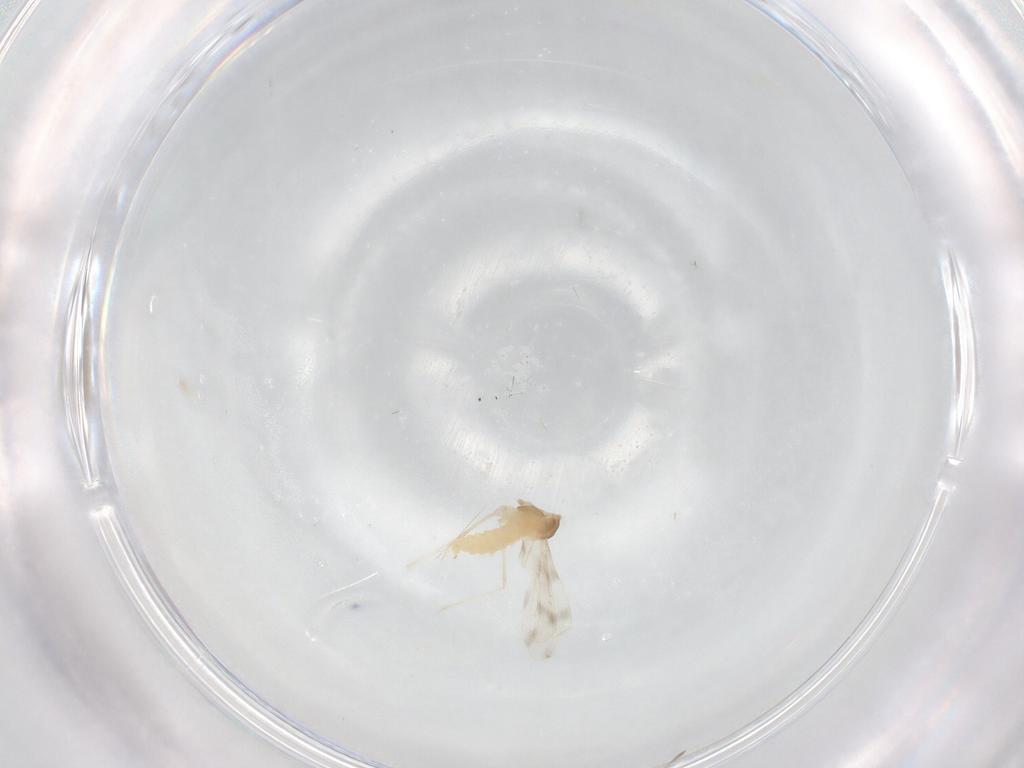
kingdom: Animalia
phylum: Arthropoda
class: Insecta
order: Diptera
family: Cecidomyiidae
